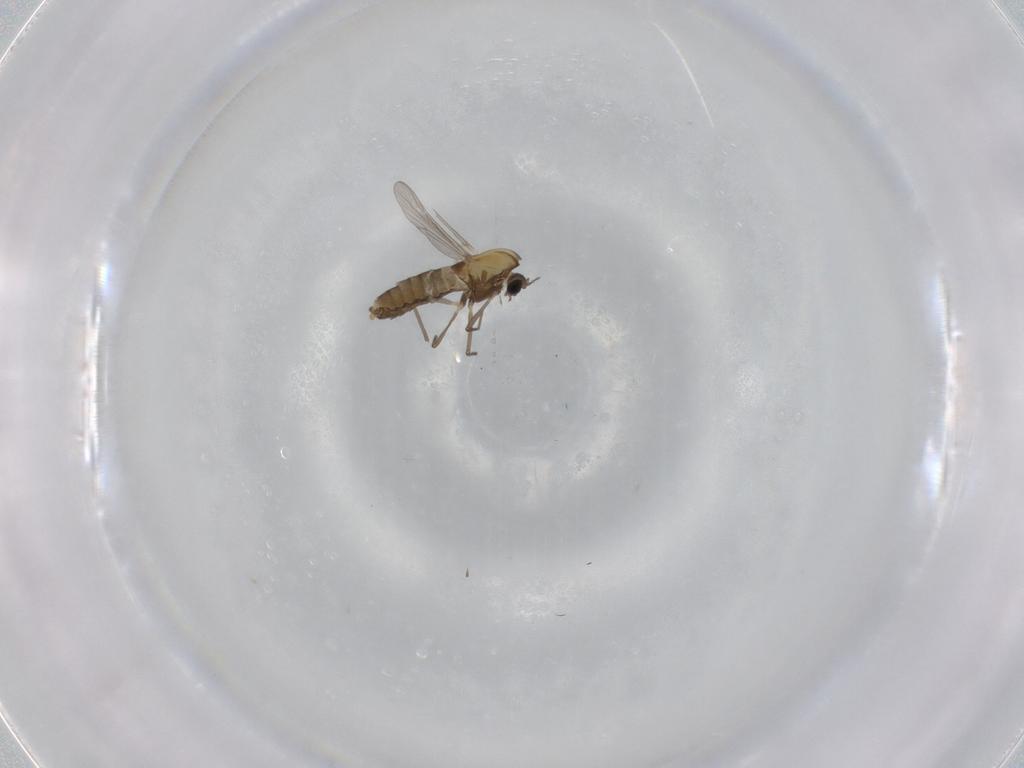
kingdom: Animalia
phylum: Arthropoda
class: Insecta
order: Diptera
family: Chironomidae
